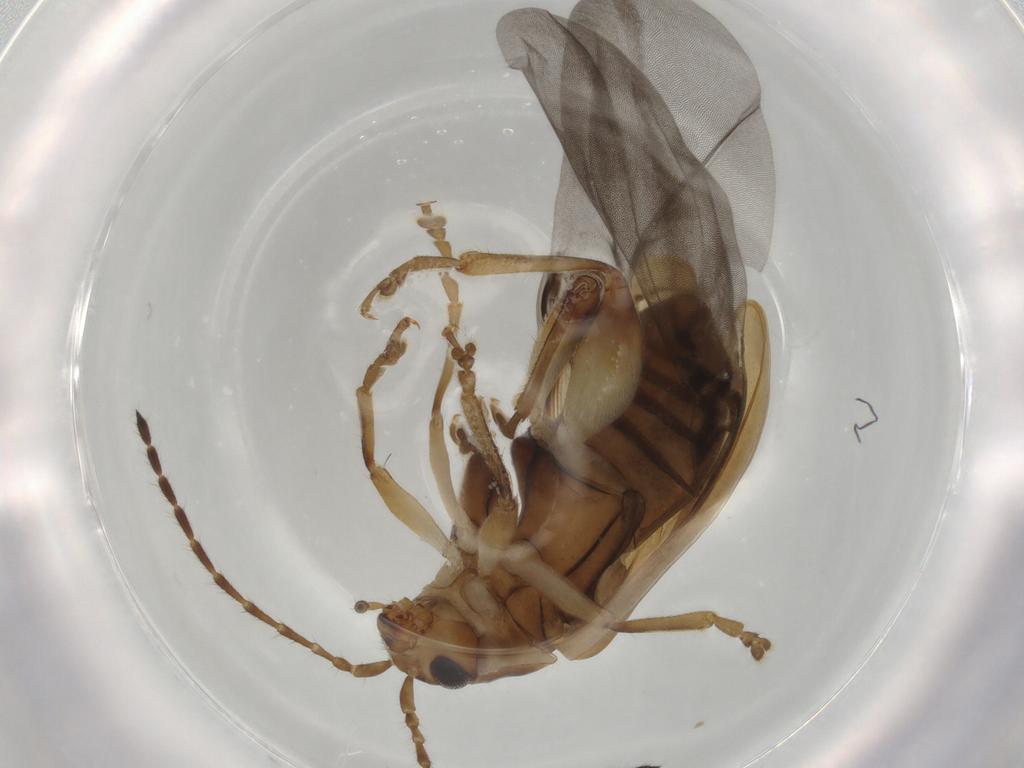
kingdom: Animalia
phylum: Arthropoda
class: Insecta
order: Coleoptera
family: Chrysomelidae
